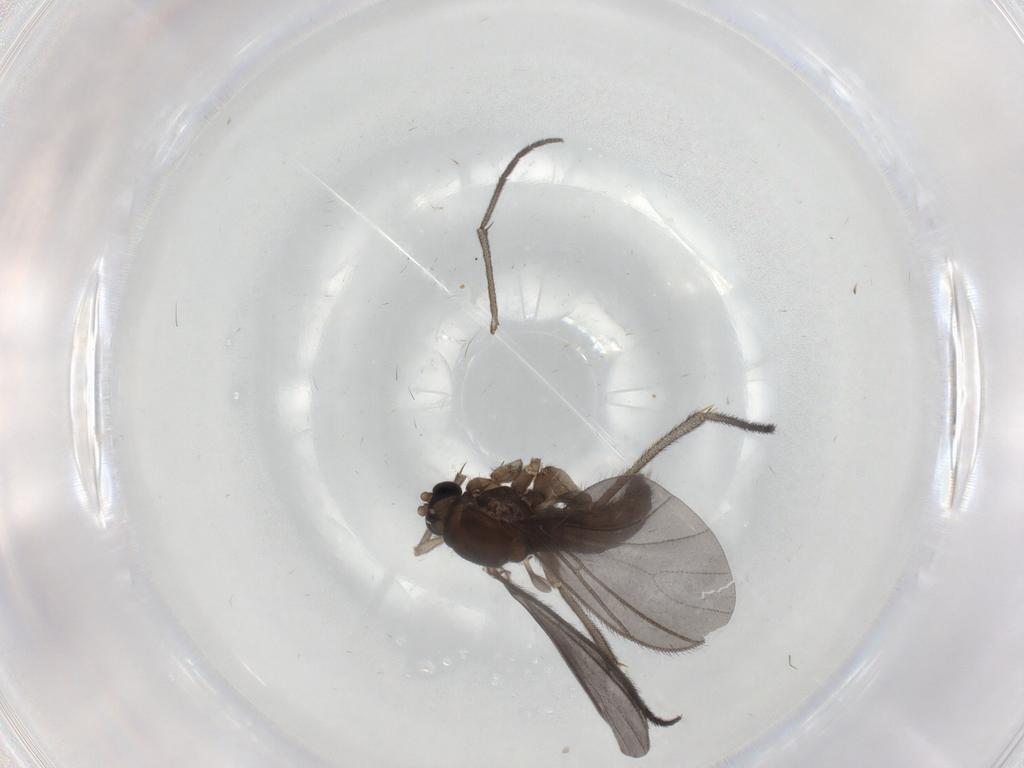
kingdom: Animalia
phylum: Arthropoda
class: Insecta
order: Diptera
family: Sciaridae
